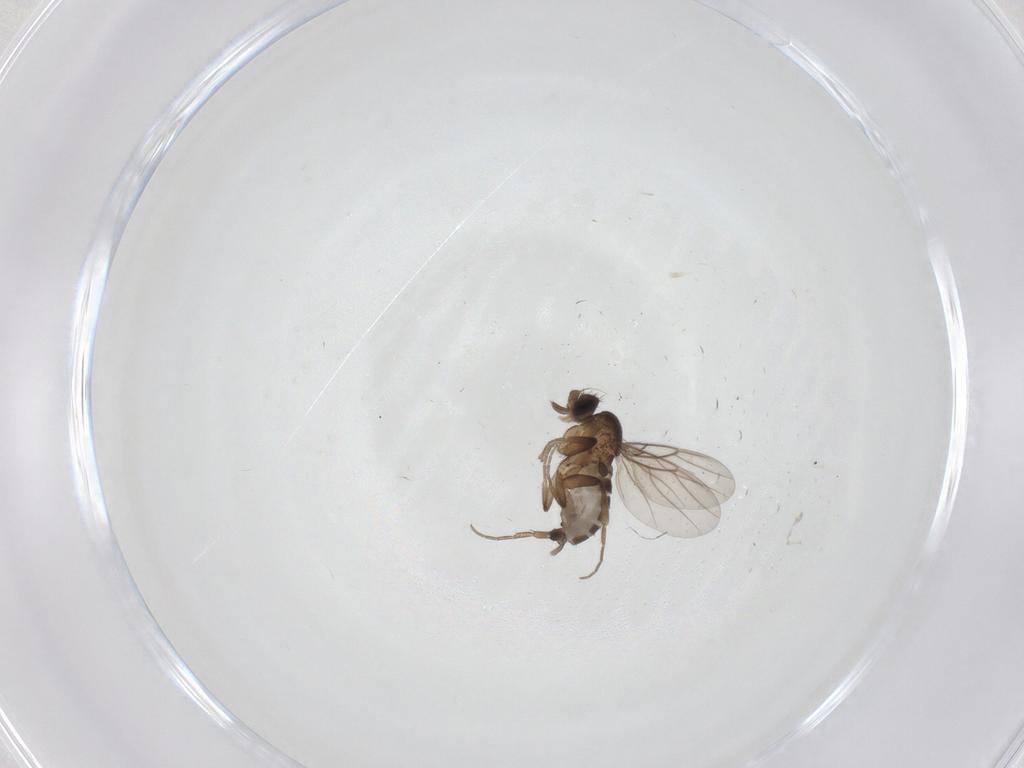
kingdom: Animalia
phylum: Arthropoda
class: Insecta
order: Diptera
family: Phoridae
